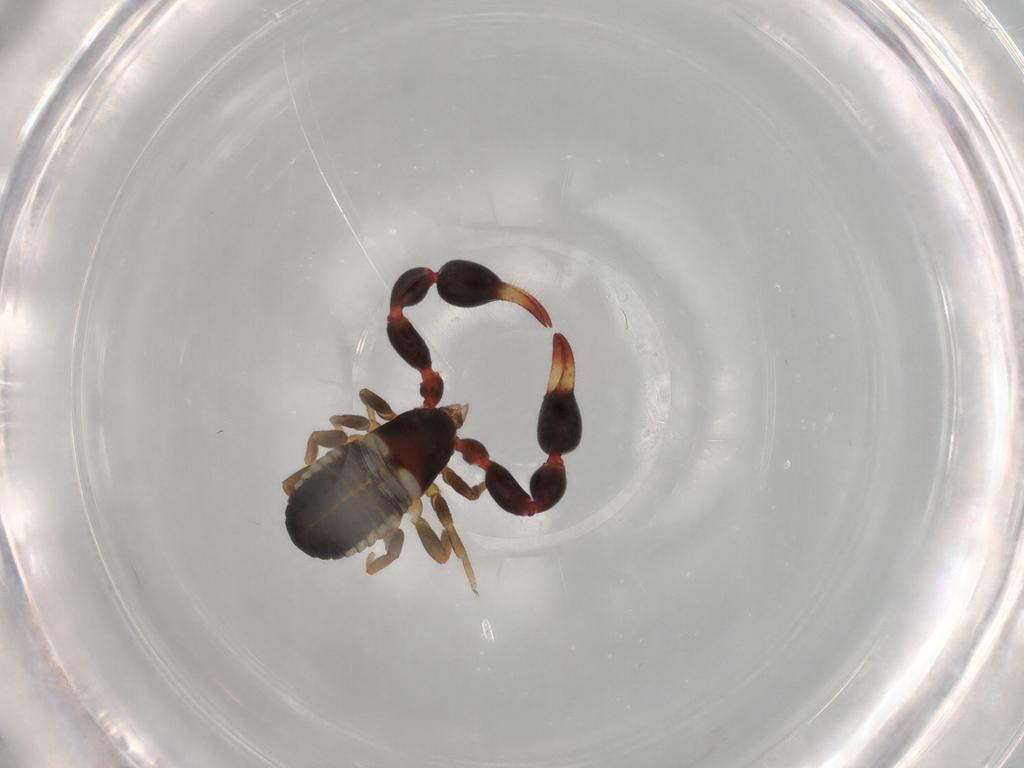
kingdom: Animalia
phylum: Arthropoda
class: Arachnida
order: Pseudoscorpiones
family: Chernetidae
